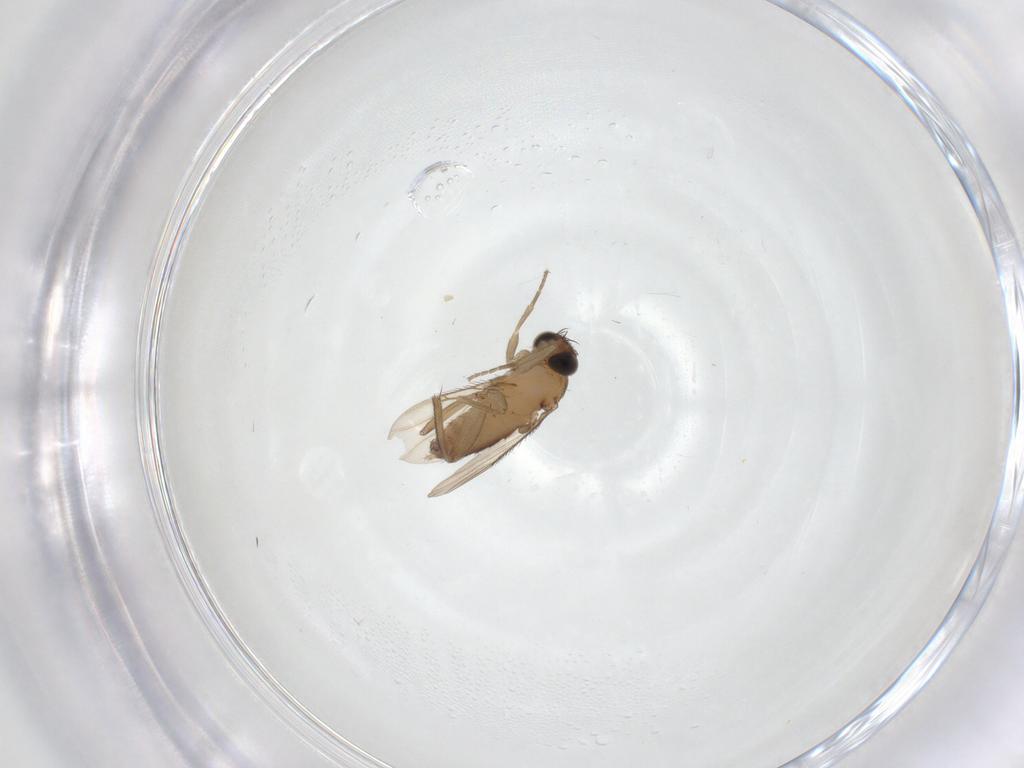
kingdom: Animalia
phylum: Arthropoda
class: Insecta
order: Diptera
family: Phoridae
